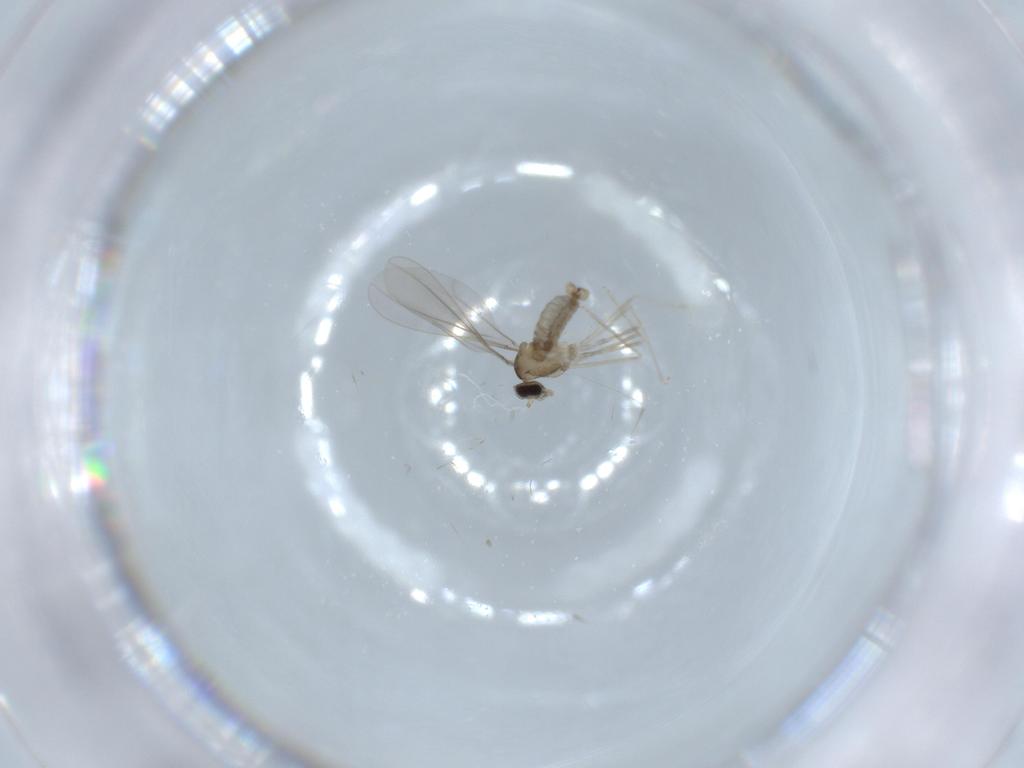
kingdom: Animalia
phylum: Arthropoda
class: Insecta
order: Diptera
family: Cecidomyiidae
